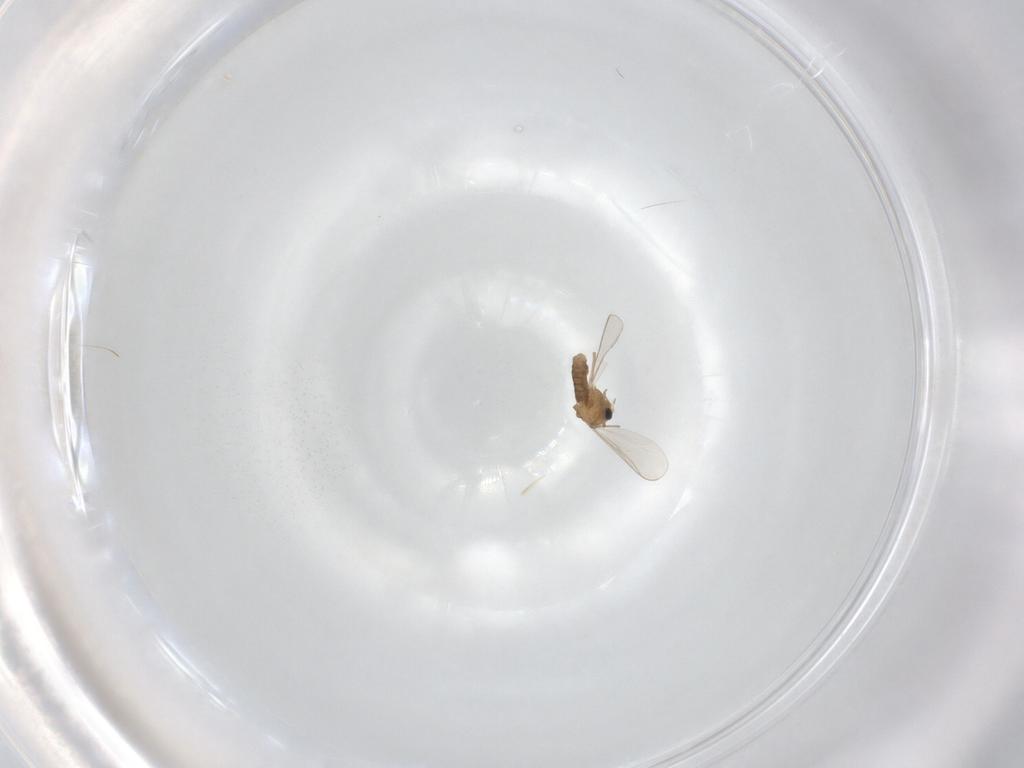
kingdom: Animalia
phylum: Arthropoda
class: Insecta
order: Diptera
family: Chironomidae
